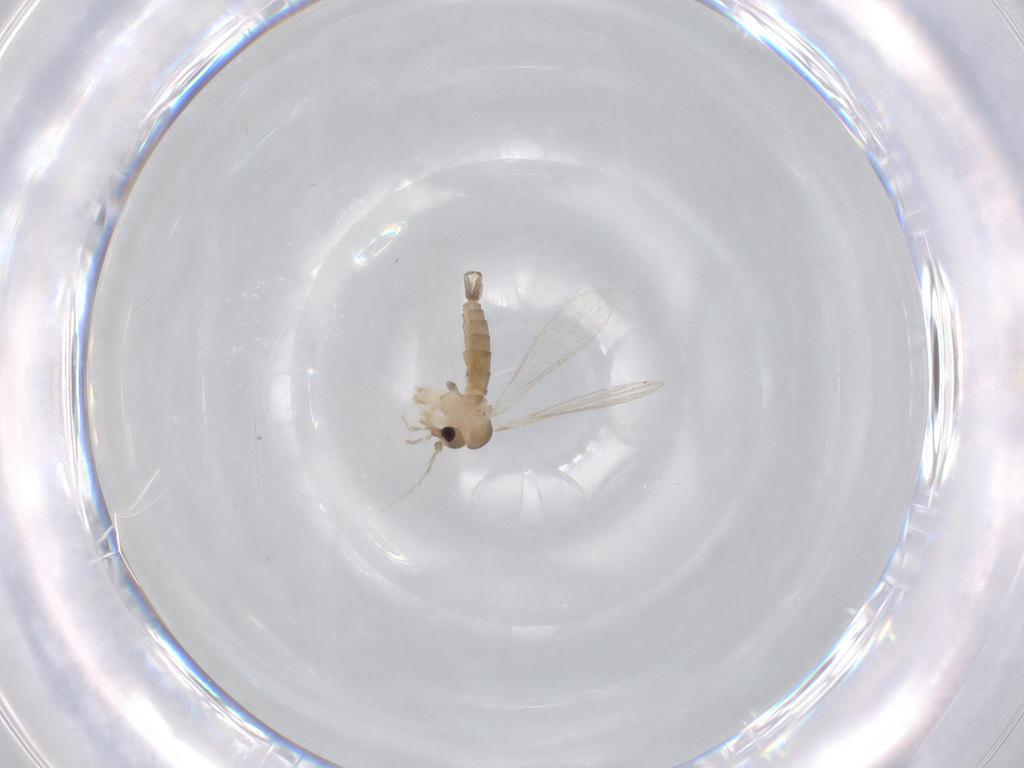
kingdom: Animalia
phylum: Arthropoda
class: Insecta
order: Diptera
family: Psychodidae
